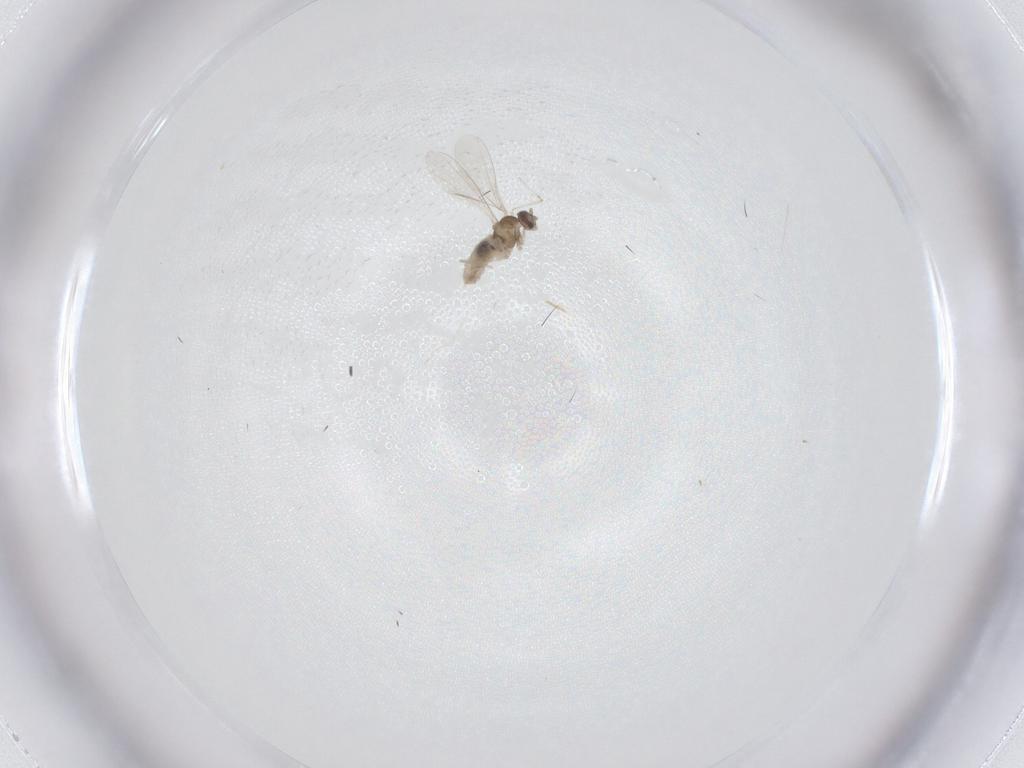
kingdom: Animalia
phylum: Arthropoda
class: Insecta
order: Diptera
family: Cecidomyiidae
